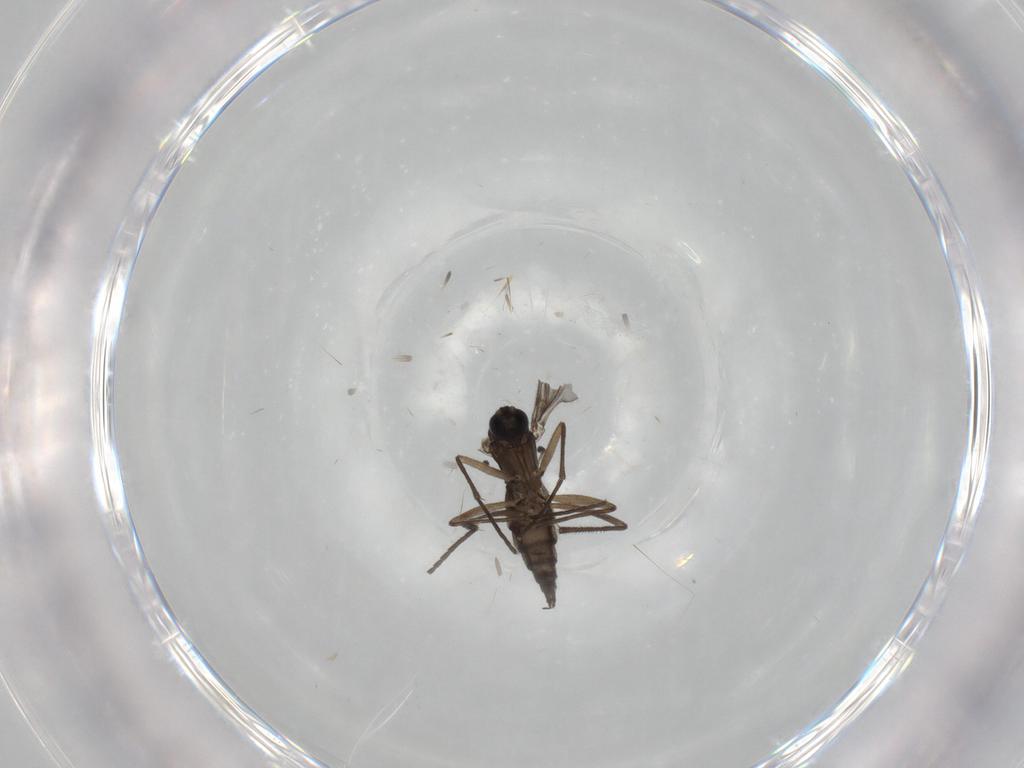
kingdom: Animalia
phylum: Arthropoda
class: Insecta
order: Diptera
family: Sciaridae
